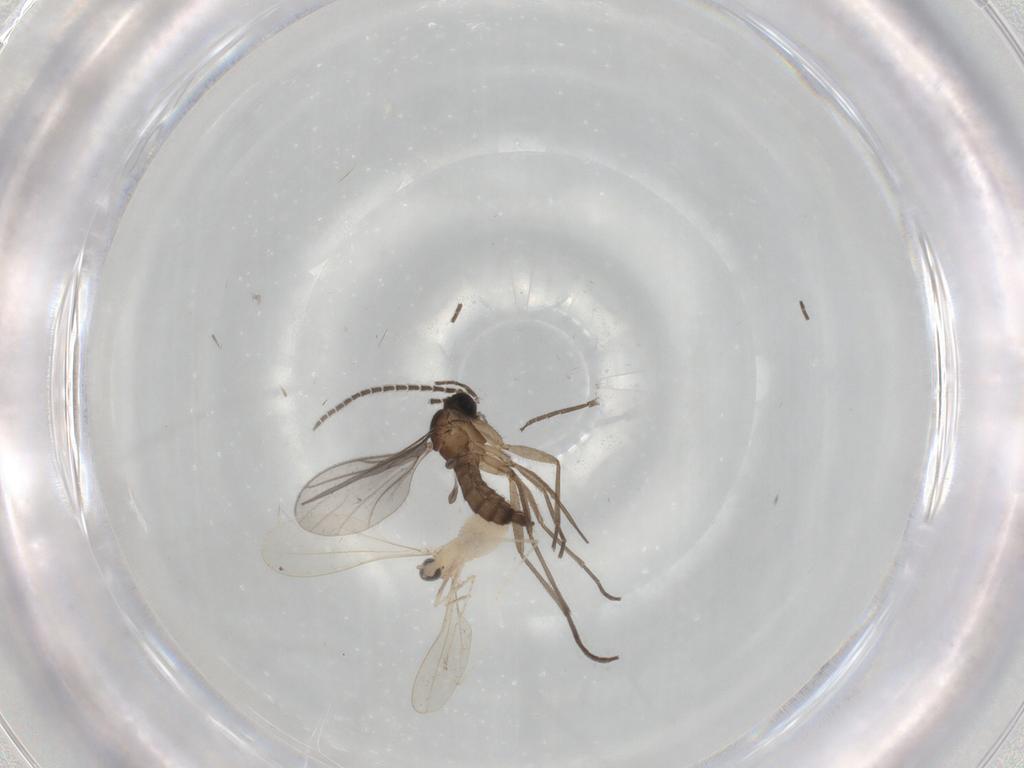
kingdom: Animalia
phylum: Arthropoda
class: Insecta
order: Diptera
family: Sciaridae
